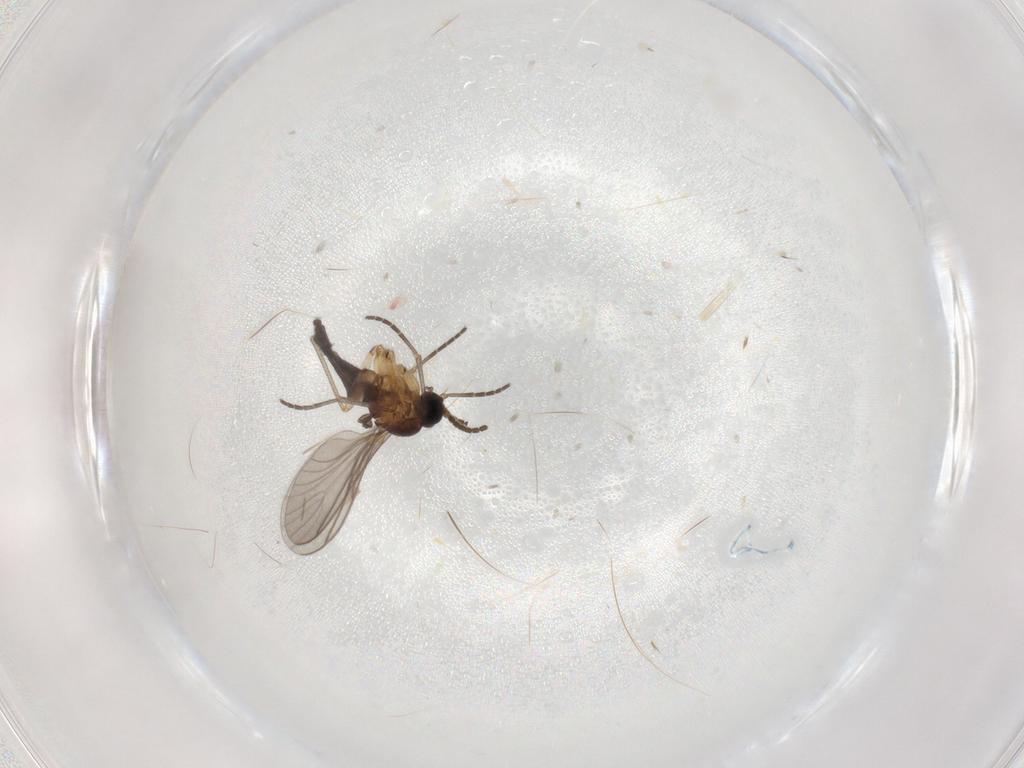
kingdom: Animalia
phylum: Arthropoda
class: Insecta
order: Diptera
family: Sciaridae
